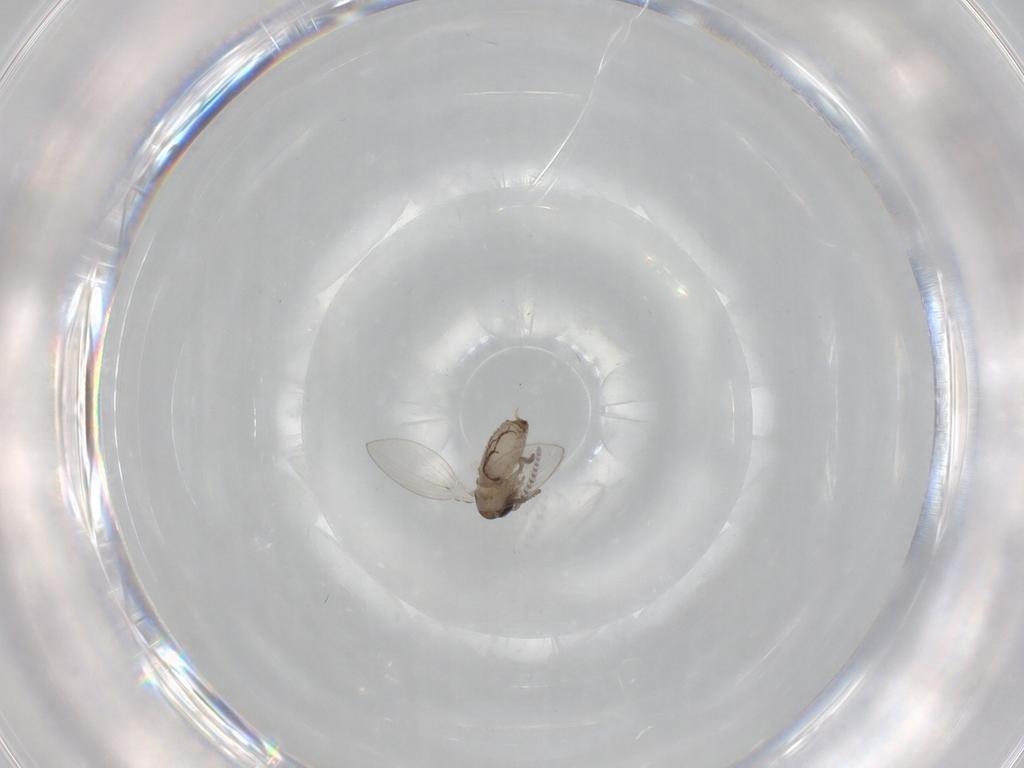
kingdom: Animalia
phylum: Arthropoda
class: Insecta
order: Diptera
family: Psychodidae
